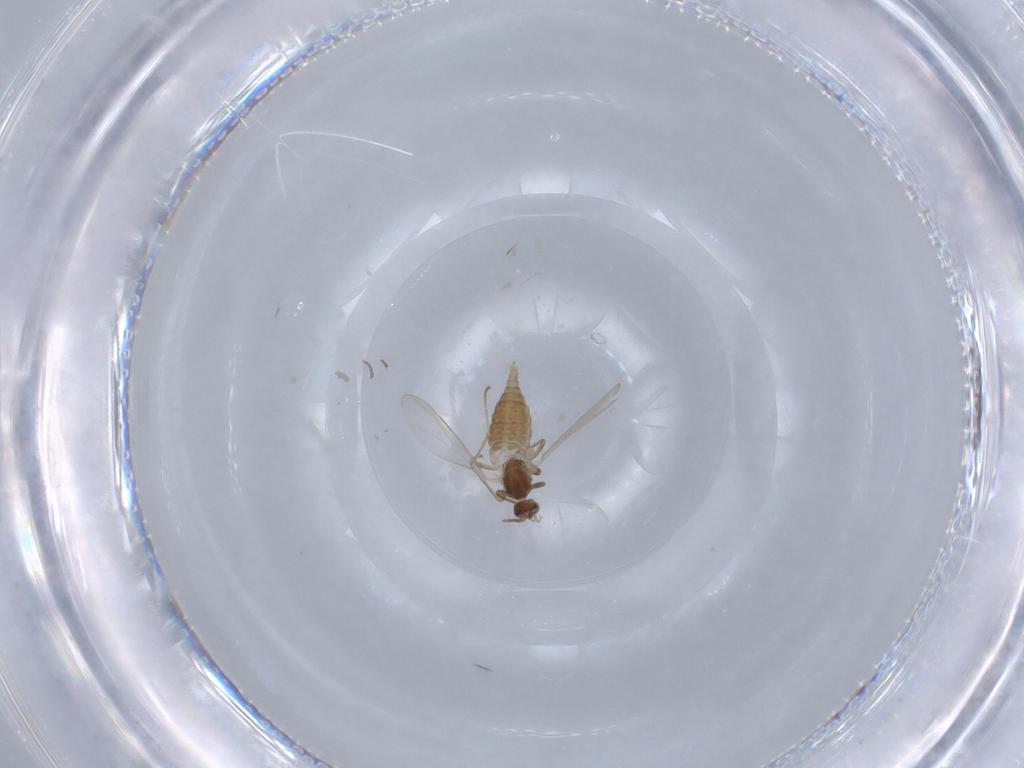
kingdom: Animalia
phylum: Arthropoda
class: Insecta
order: Diptera
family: Cecidomyiidae
